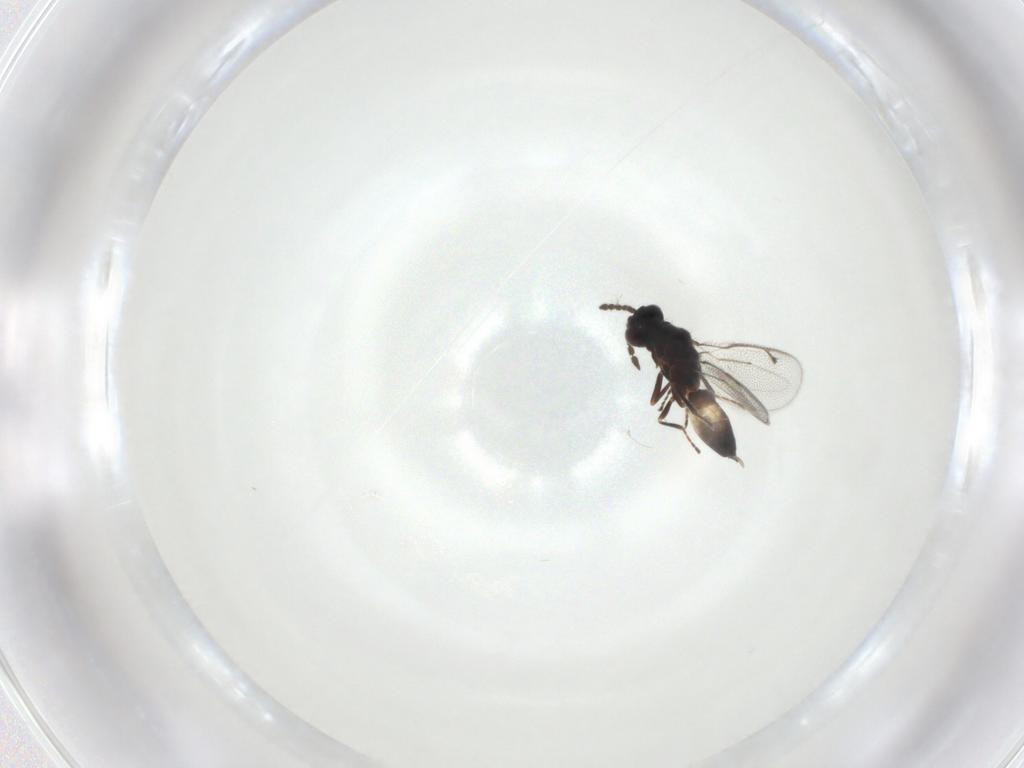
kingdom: Animalia
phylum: Arthropoda
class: Insecta
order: Hymenoptera
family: Eulophidae
